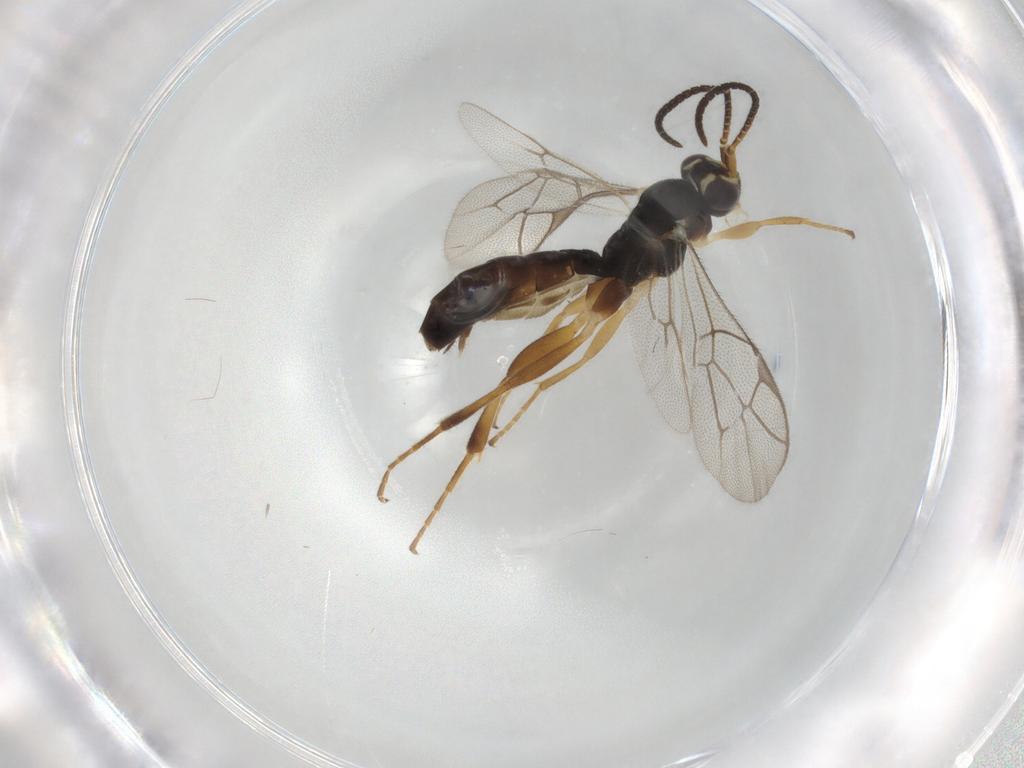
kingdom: Animalia
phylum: Arthropoda
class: Insecta
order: Hymenoptera
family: Ichneumonidae
